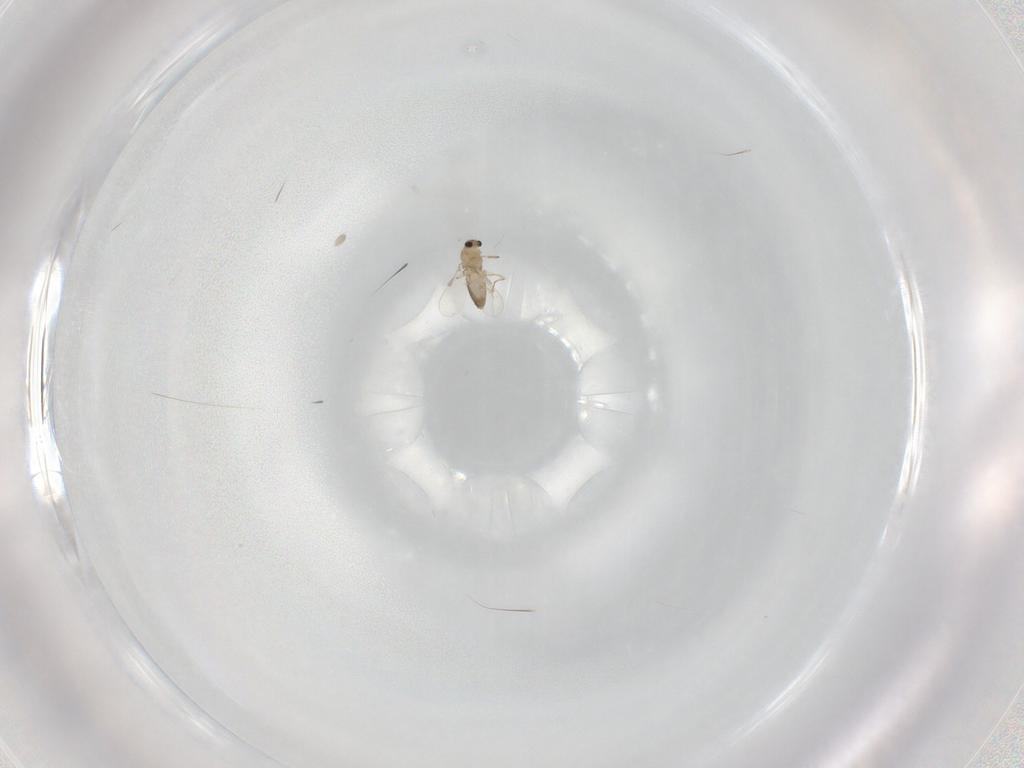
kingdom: Animalia
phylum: Arthropoda
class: Insecta
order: Diptera
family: Chironomidae
